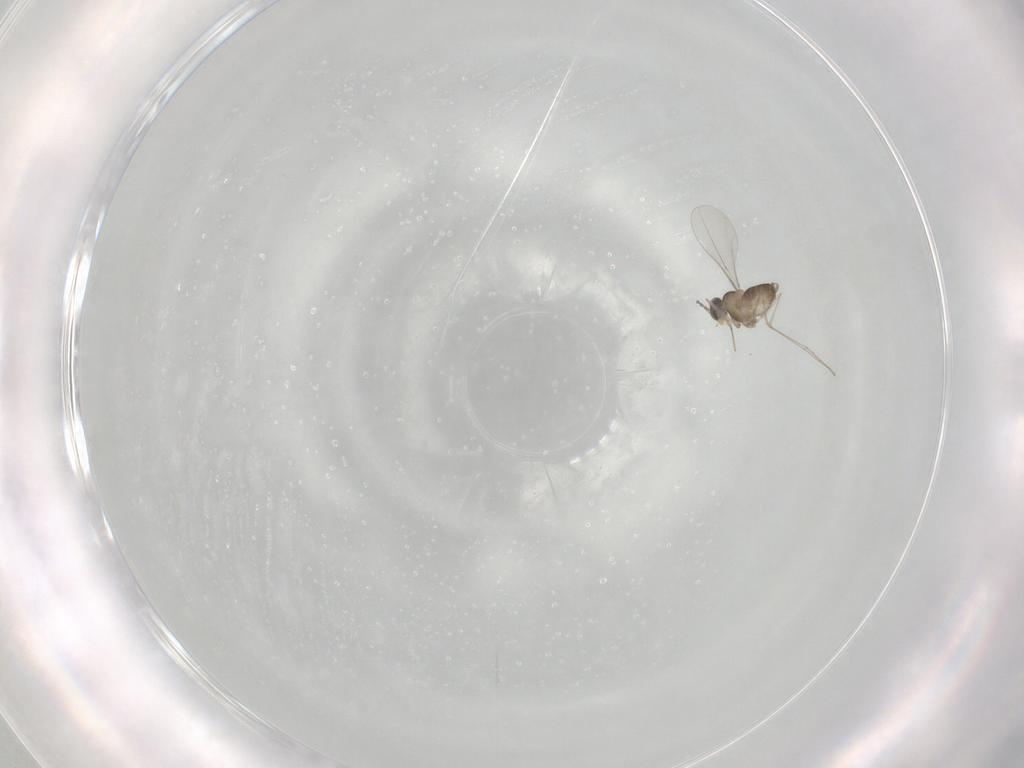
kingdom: Animalia
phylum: Arthropoda
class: Insecta
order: Diptera
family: Cecidomyiidae
